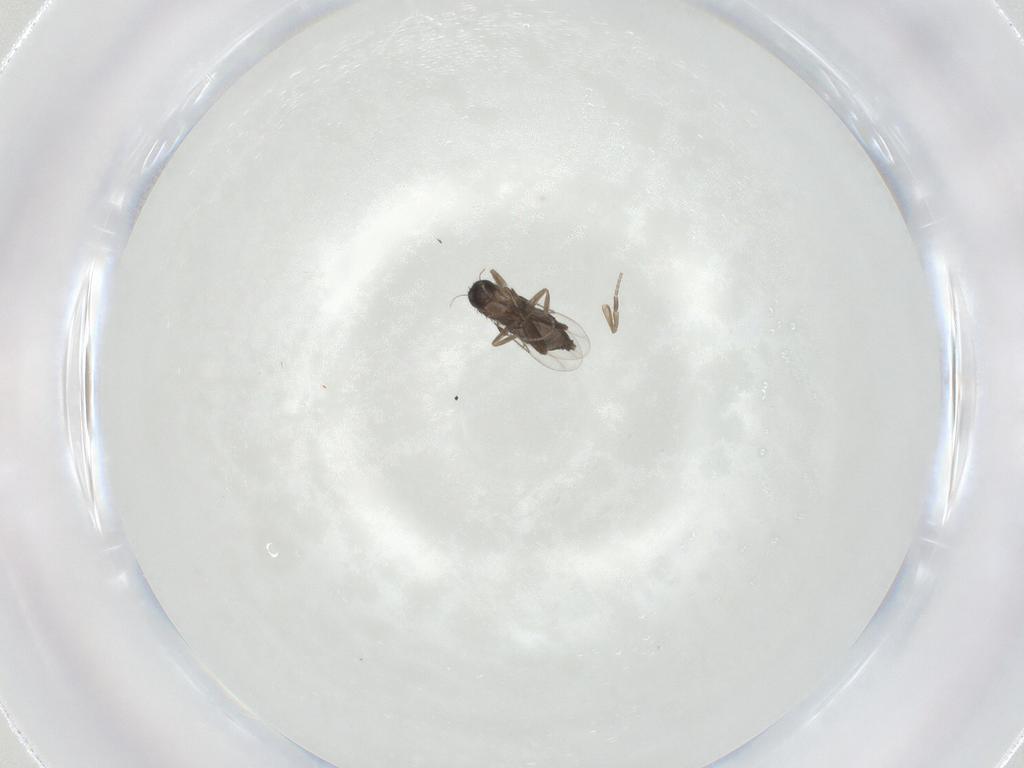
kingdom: Animalia
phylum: Arthropoda
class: Insecta
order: Diptera
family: Phoridae
